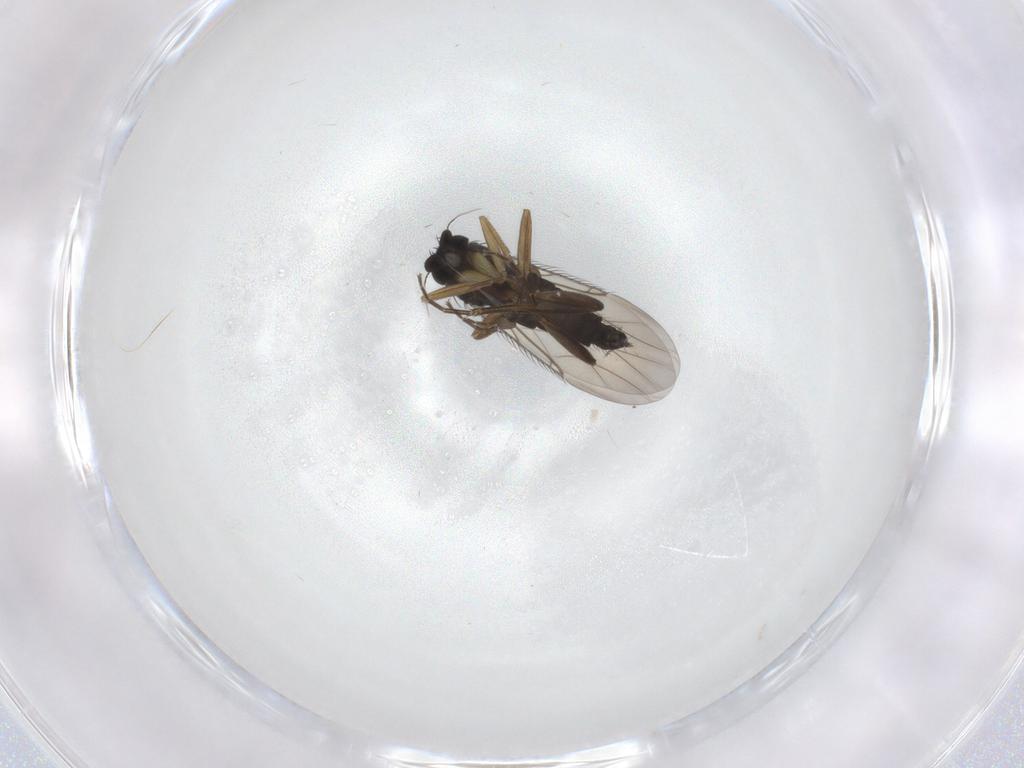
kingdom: Animalia
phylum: Arthropoda
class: Insecta
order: Diptera
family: Phoridae
